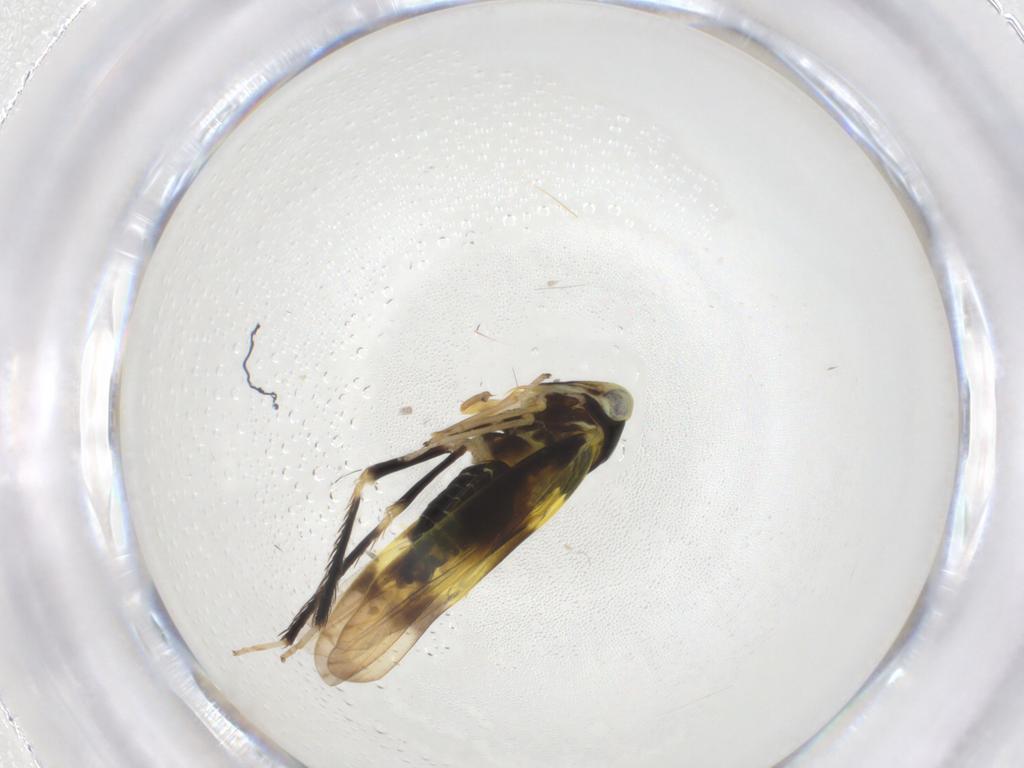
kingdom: Animalia
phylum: Arthropoda
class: Insecta
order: Hemiptera
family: Cicadellidae
